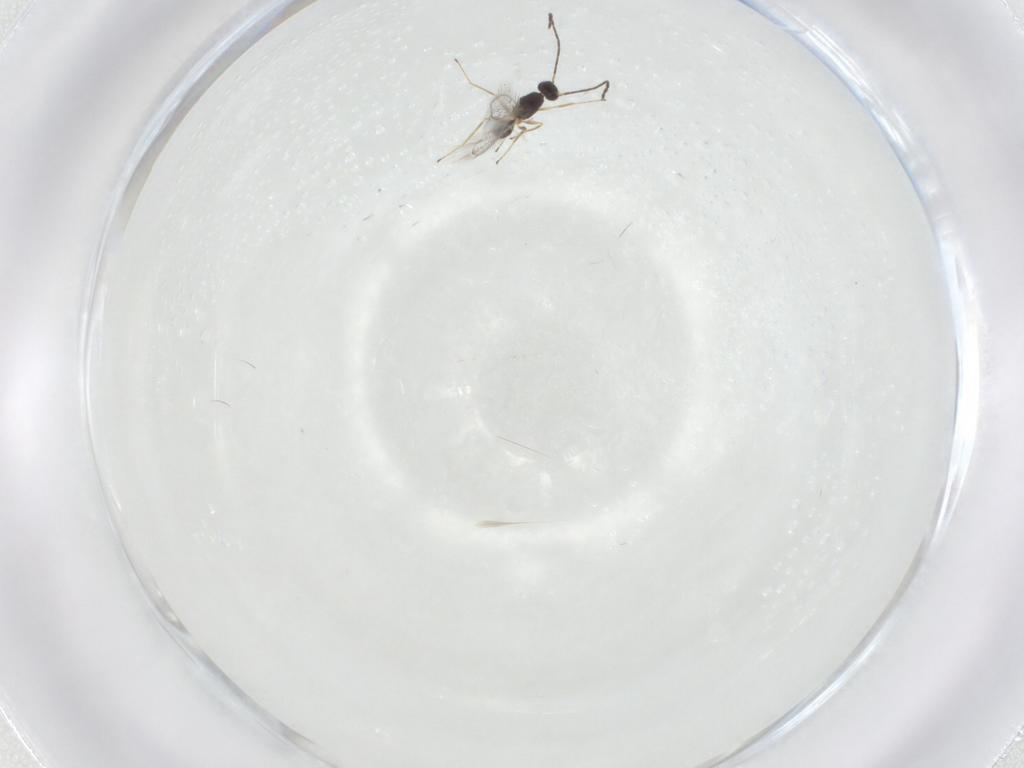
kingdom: Animalia
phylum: Arthropoda
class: Insecta
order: Hymenoptera
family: Mymaridae
